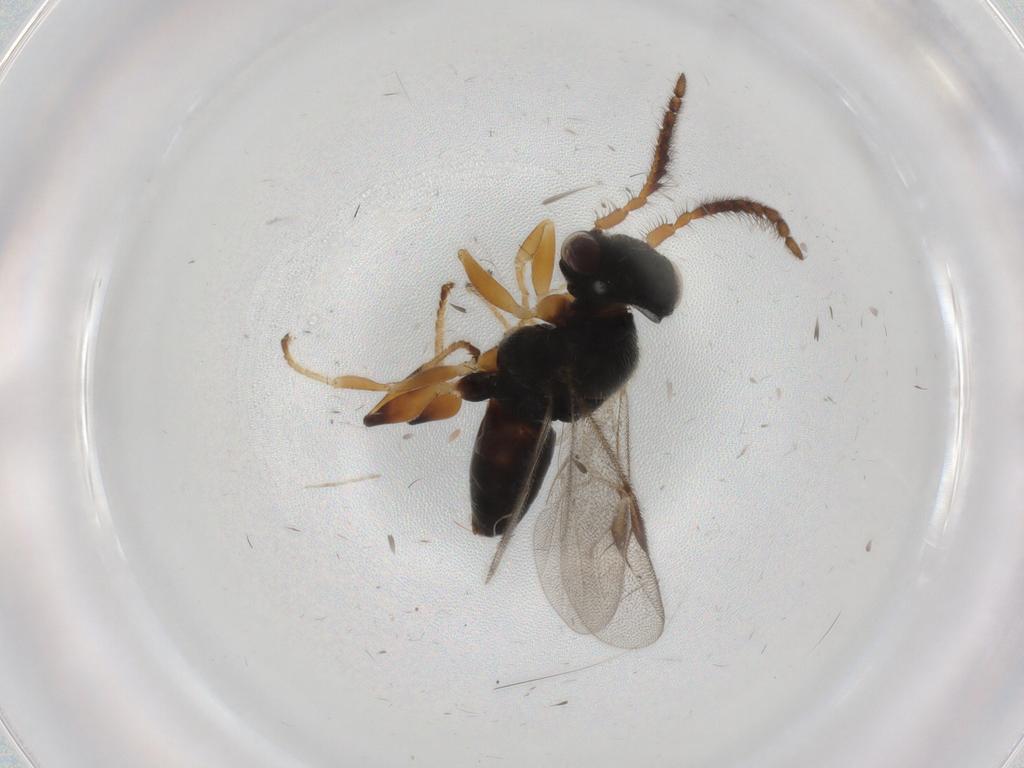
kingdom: Animalia
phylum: Arthropoda
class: Insecta
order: Hymenoptera
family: Dryinidae
